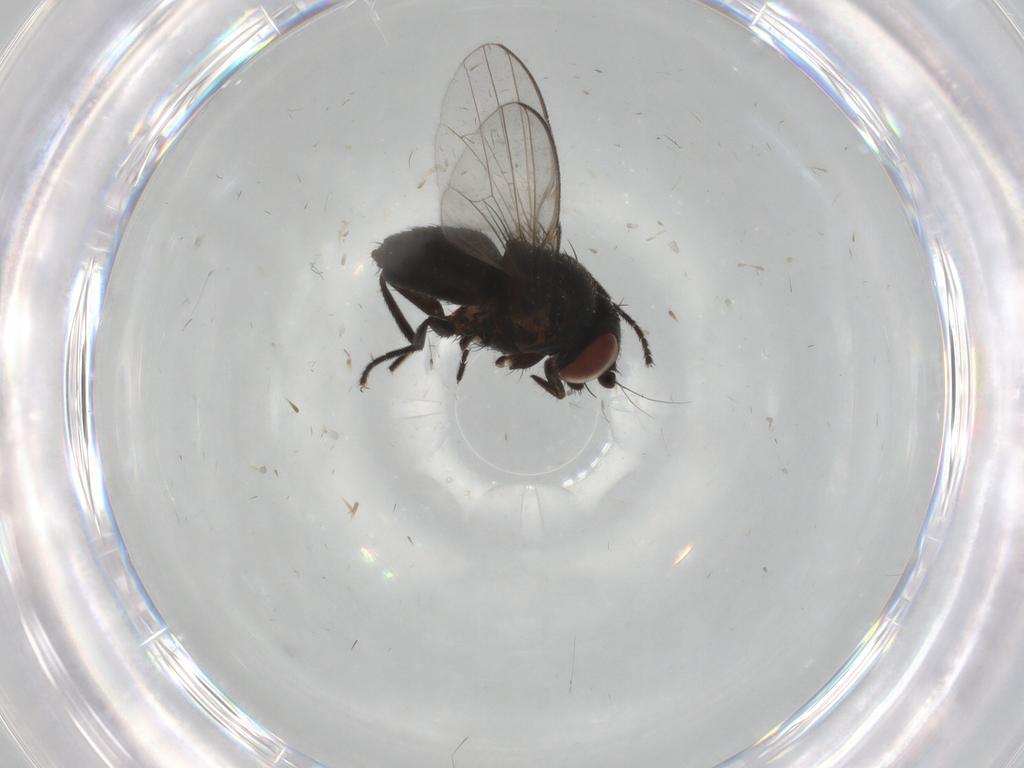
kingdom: Animalia
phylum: Arthropoda
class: Insecta
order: Diptera
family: Milichiidae
